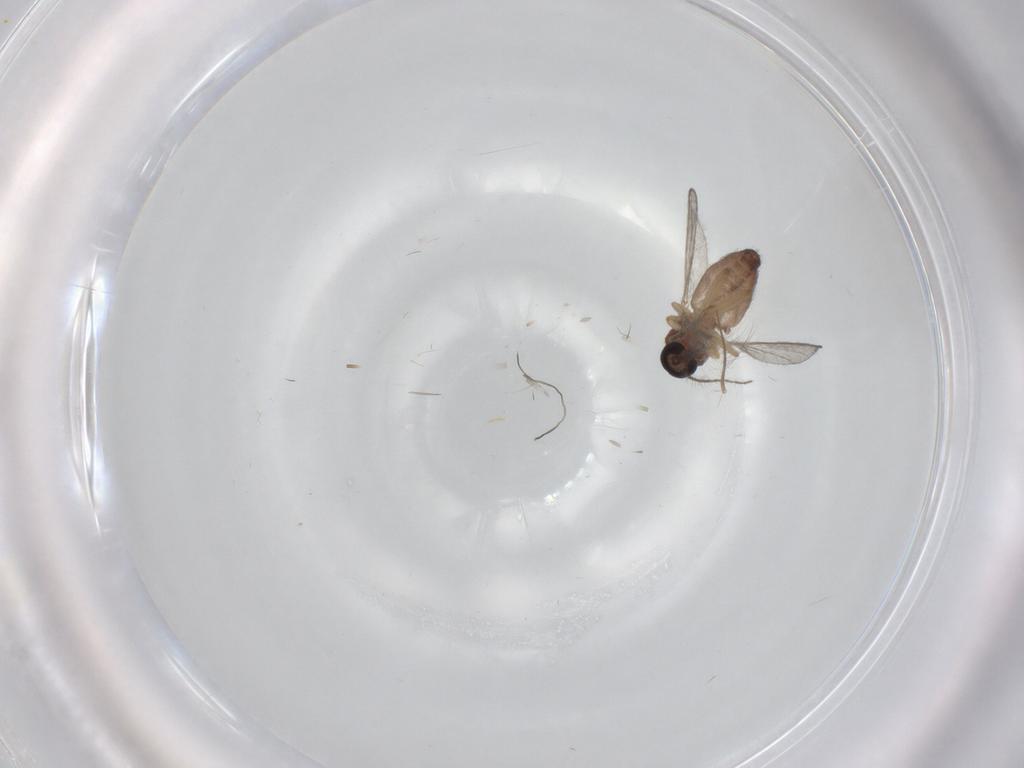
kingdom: Animalia
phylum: Arthropoda
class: Insecta
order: Diptera
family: Ceratopogonidae
